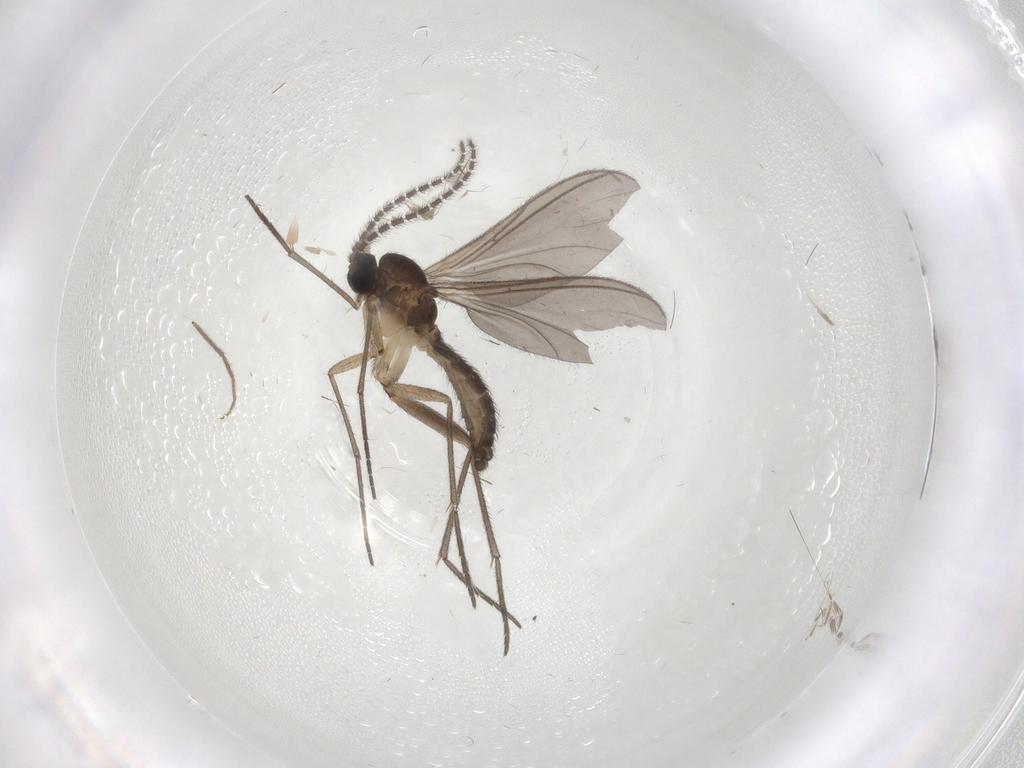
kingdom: Animalia
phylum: Arthropoda
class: Insecta
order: Diptera
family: Sciaridae
